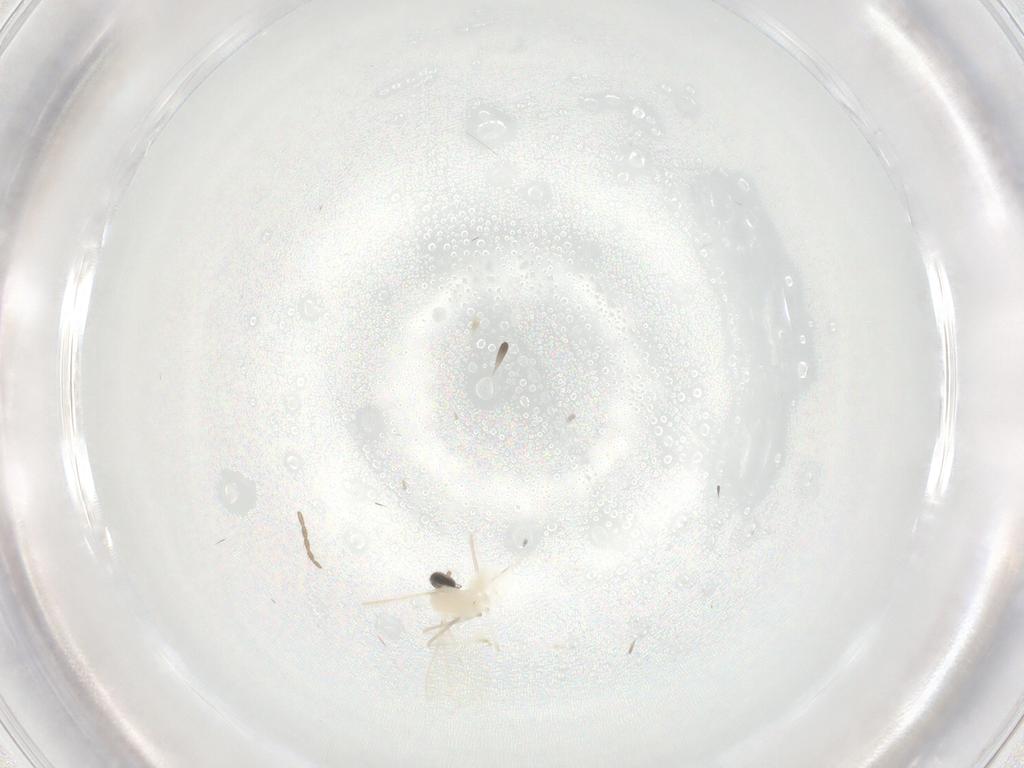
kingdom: Animalia
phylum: Arthropoda
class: Insecta
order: Diptera
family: Cecidomyiidae
